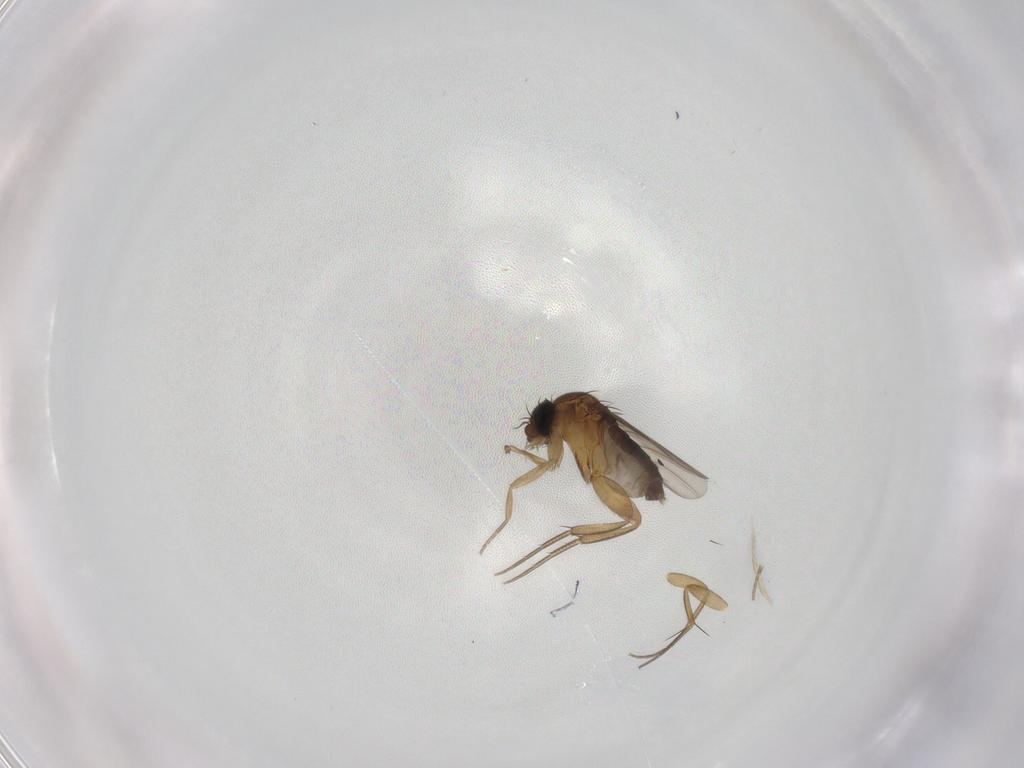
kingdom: Animalia
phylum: Arthropoda
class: Insecta
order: Diptera
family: Phoridae
